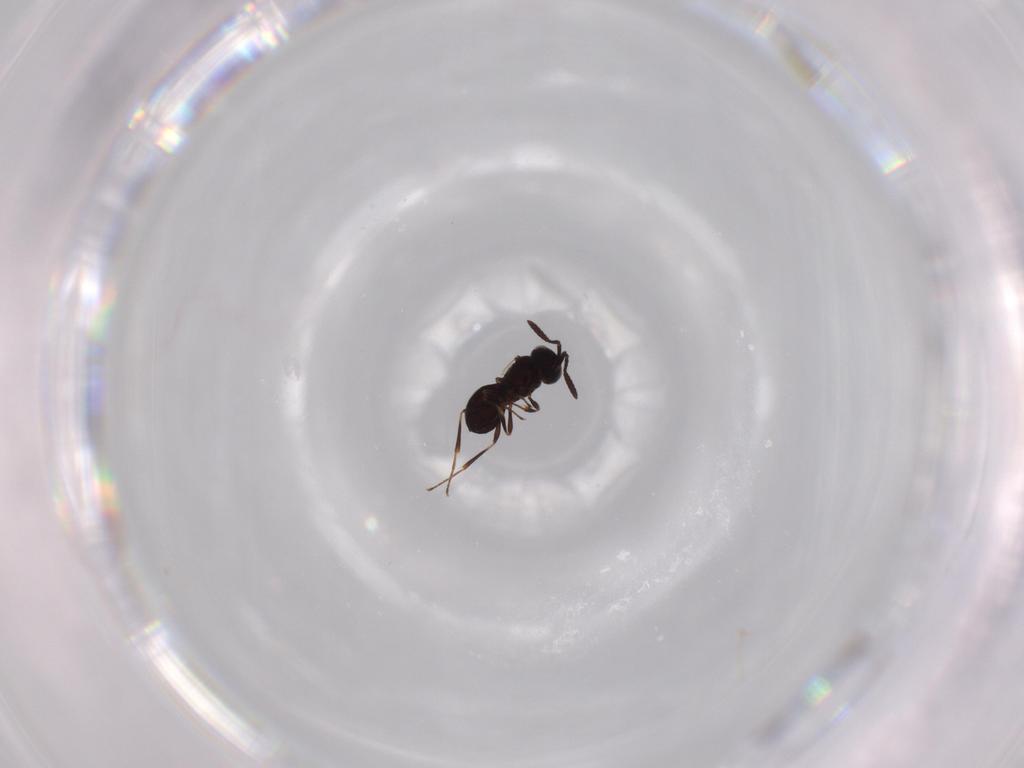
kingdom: Animalia
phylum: Arthropoda
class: Insecta
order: Hymenoptera
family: Scelionidae
